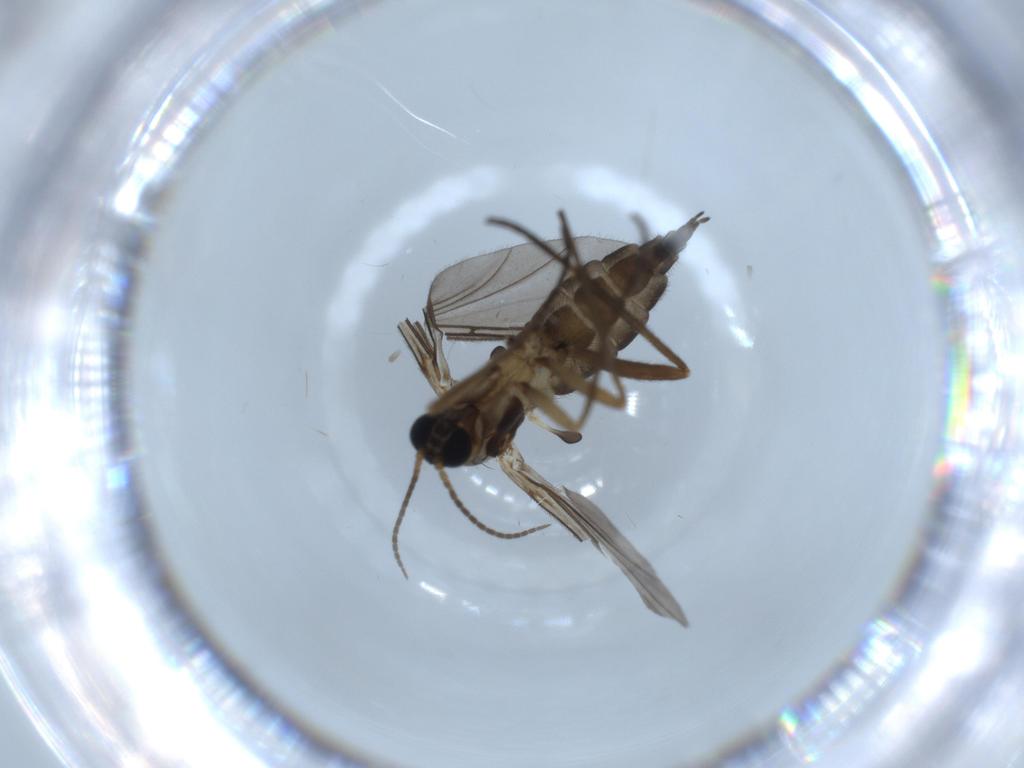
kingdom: Animalia
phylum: Arthropoda
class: Insecta
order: Diptera
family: Sciaridae
